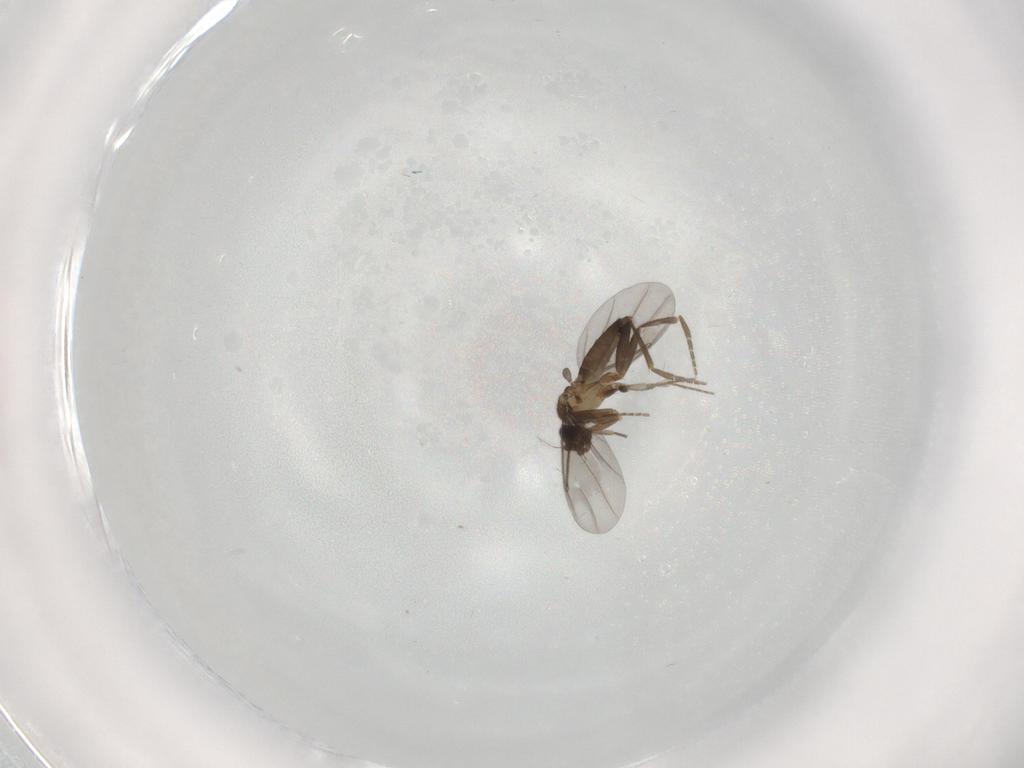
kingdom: Animalia
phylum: Arthropoda
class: Insecta
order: Diptera
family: Phoridae
